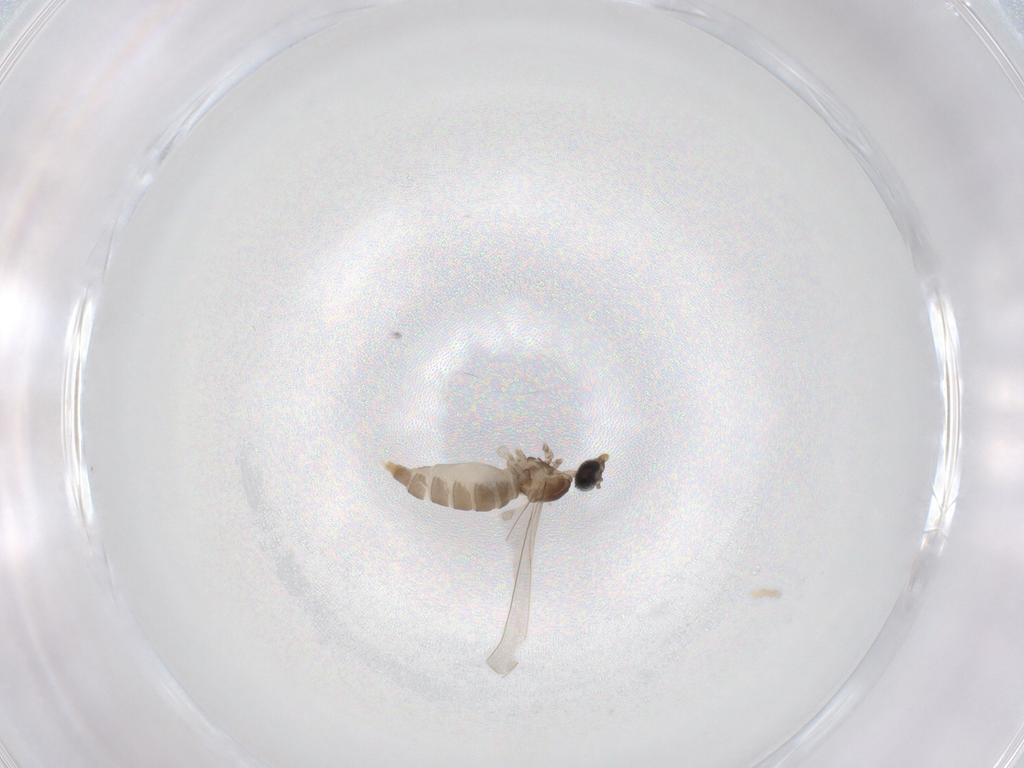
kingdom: Animalia
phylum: Arthropoda
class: Insecta
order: Diptera
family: Cecidomyiidae
